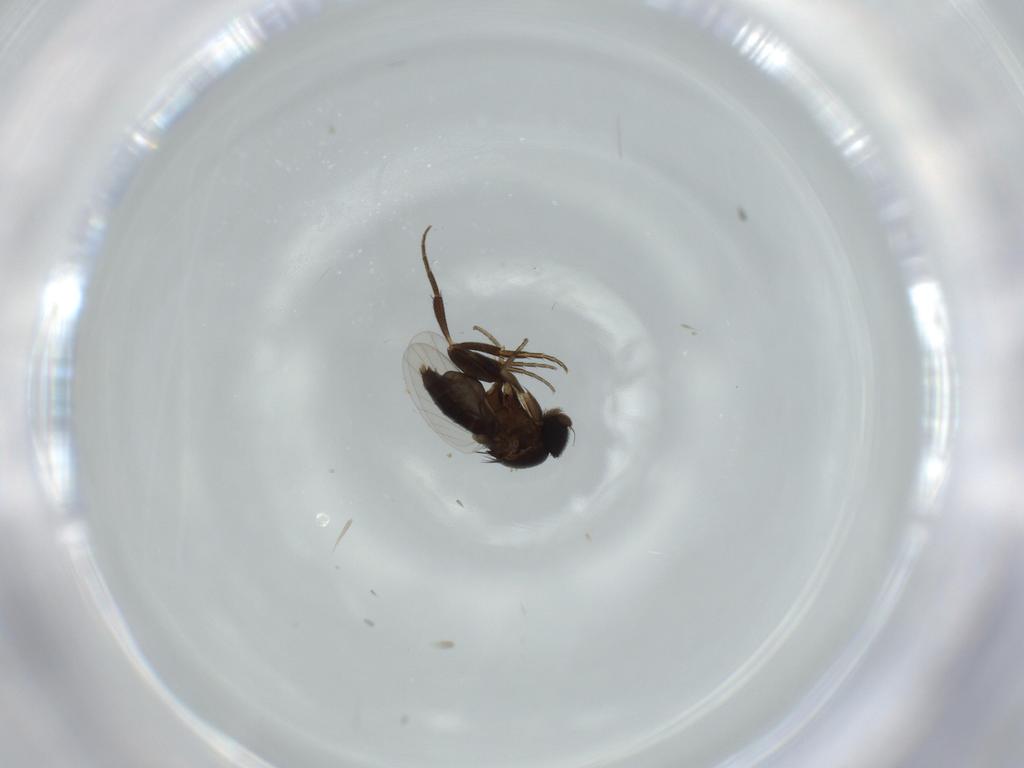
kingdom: Animalia
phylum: Arthropoda
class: Insecta
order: Diptera
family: Phoridae
